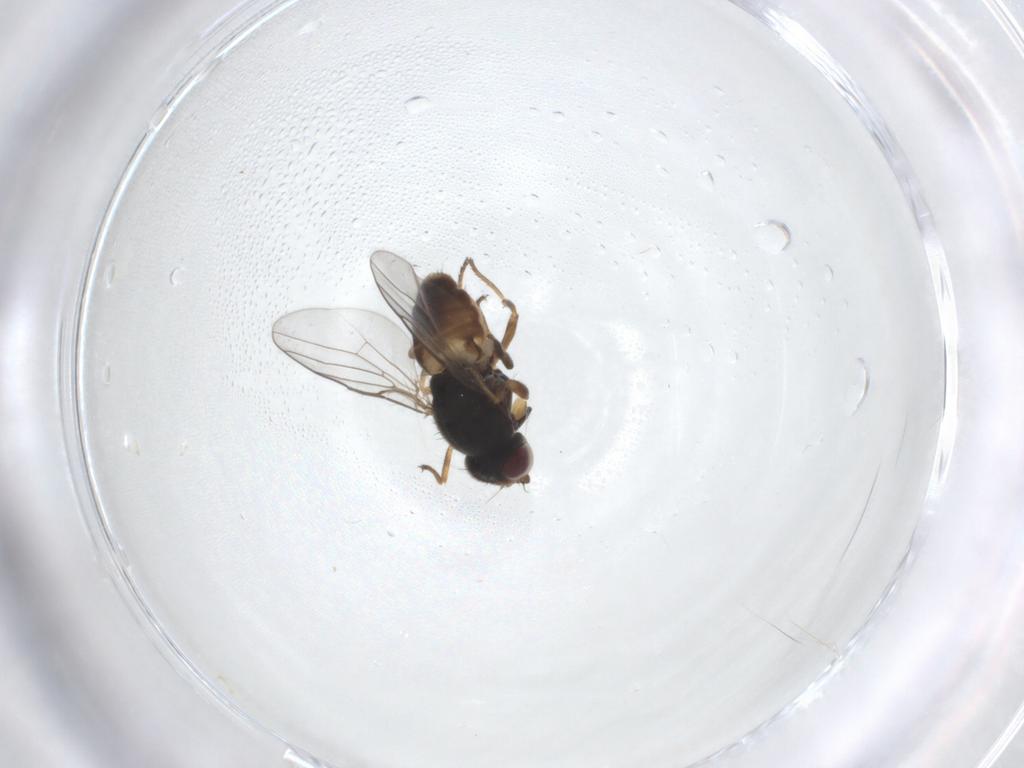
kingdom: Animalia
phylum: Arthropoda
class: Insecta
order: Diptera
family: Chloropidae
